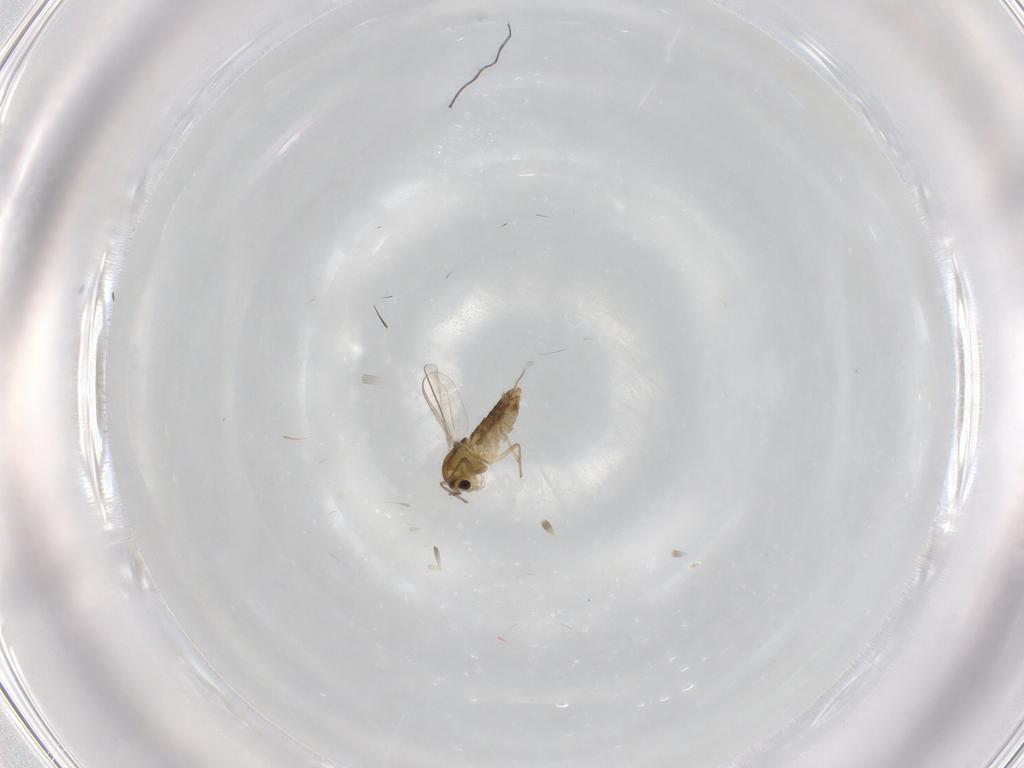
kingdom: Animalia
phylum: Arthropoda
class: Insecta
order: Diptera
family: Chironomidae
